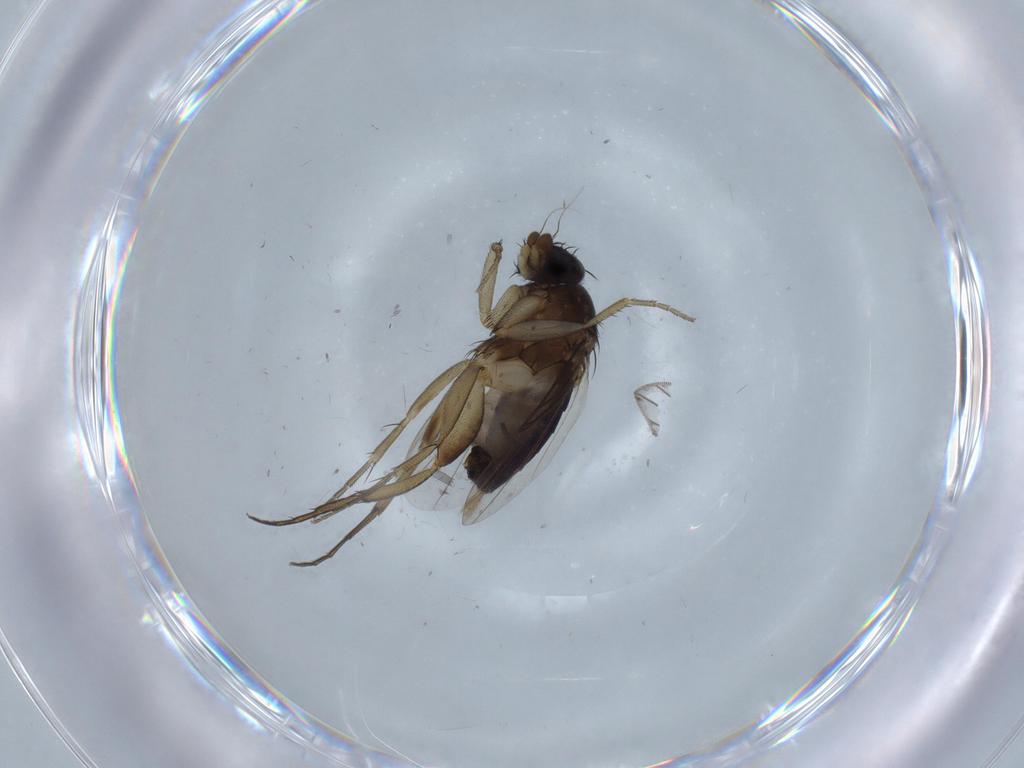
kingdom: Animalia
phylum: Arthropoda
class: Insecta
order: Diptera
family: Phoridae
